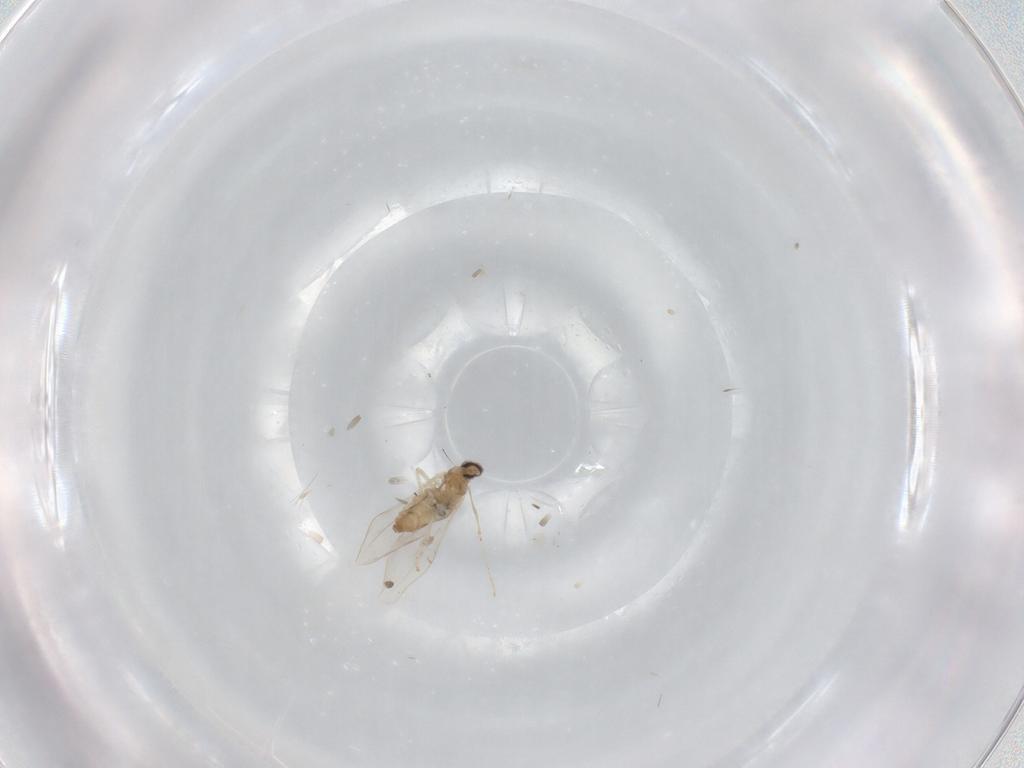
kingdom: Animalia
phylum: Arthropoda
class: Insecta
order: Diptera
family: Cecidomyiidae
